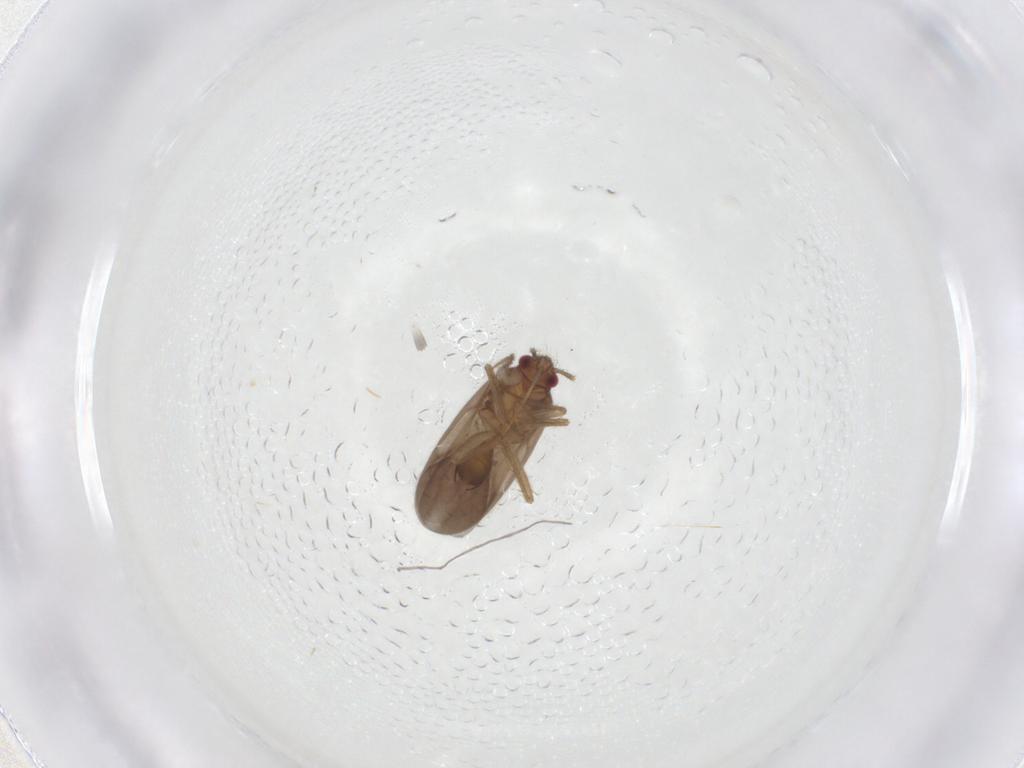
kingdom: Animalia
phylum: Arthropoda
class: Insecta
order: Hemiptera
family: Ceratocombidae
